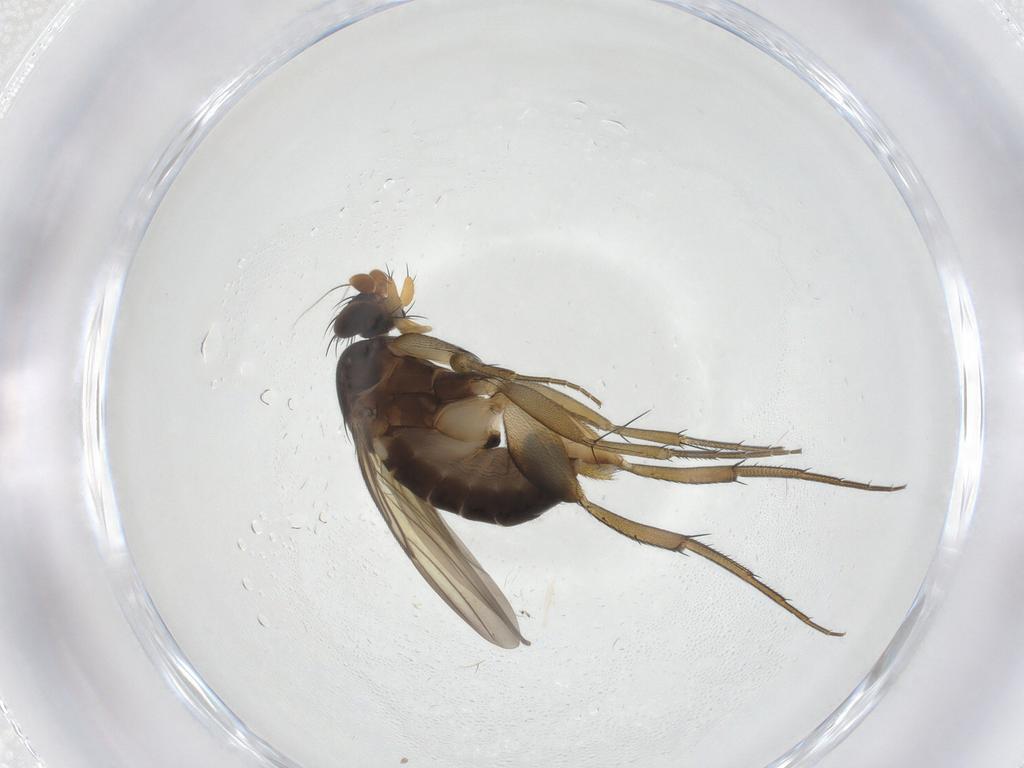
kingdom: Animalia
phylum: Arthropoda
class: Insecta
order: Diptera
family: Phoridae
